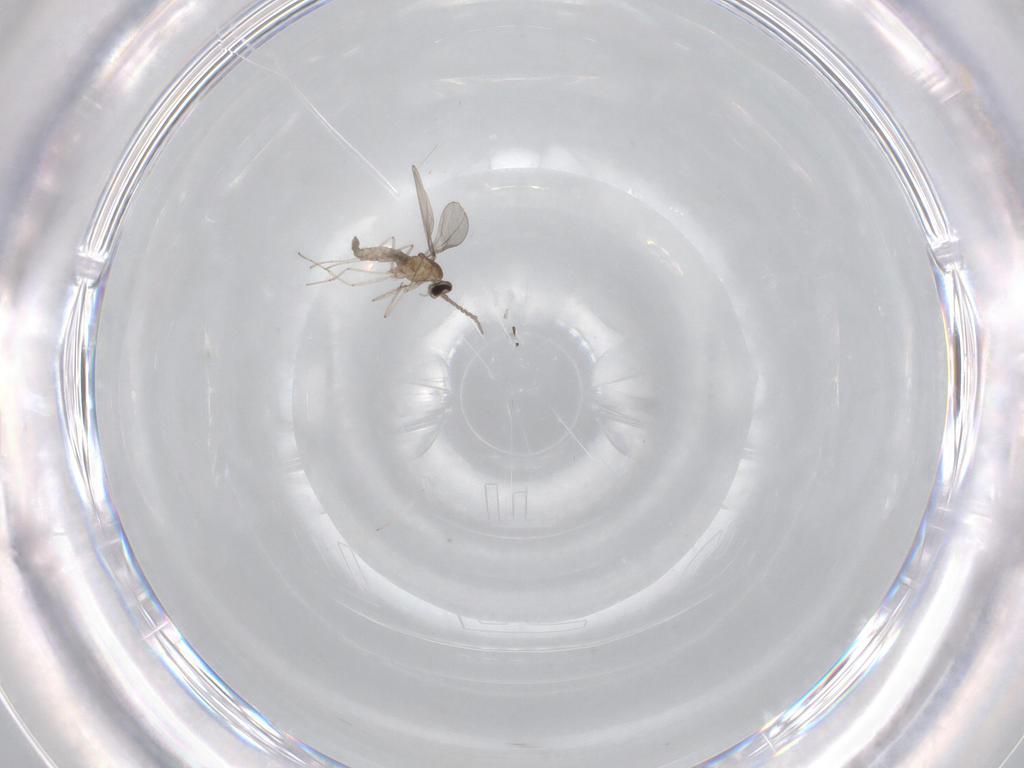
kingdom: Animalia
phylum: Arthropoda
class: Insecta
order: Diptera
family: Cecidomyiidae
